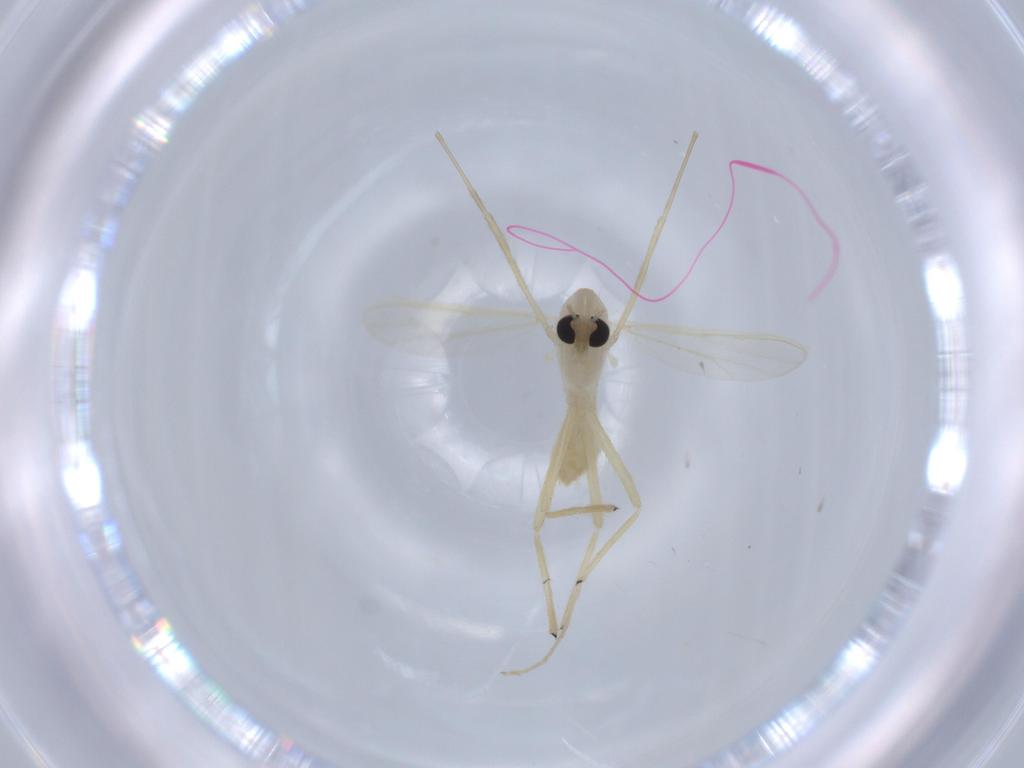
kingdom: Animalia
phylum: Arthropoda
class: Insecta
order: Diptera
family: Chironomidae
